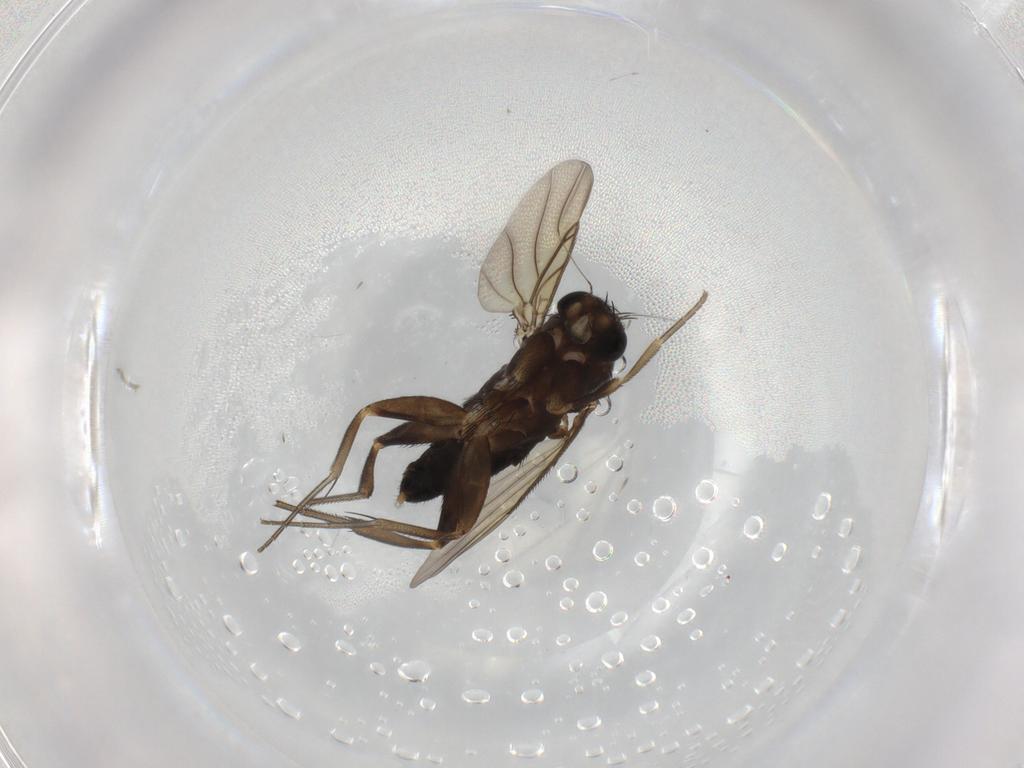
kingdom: Animalia
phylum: Arthropoda
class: Insecta
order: Diptera
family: Phoridae
